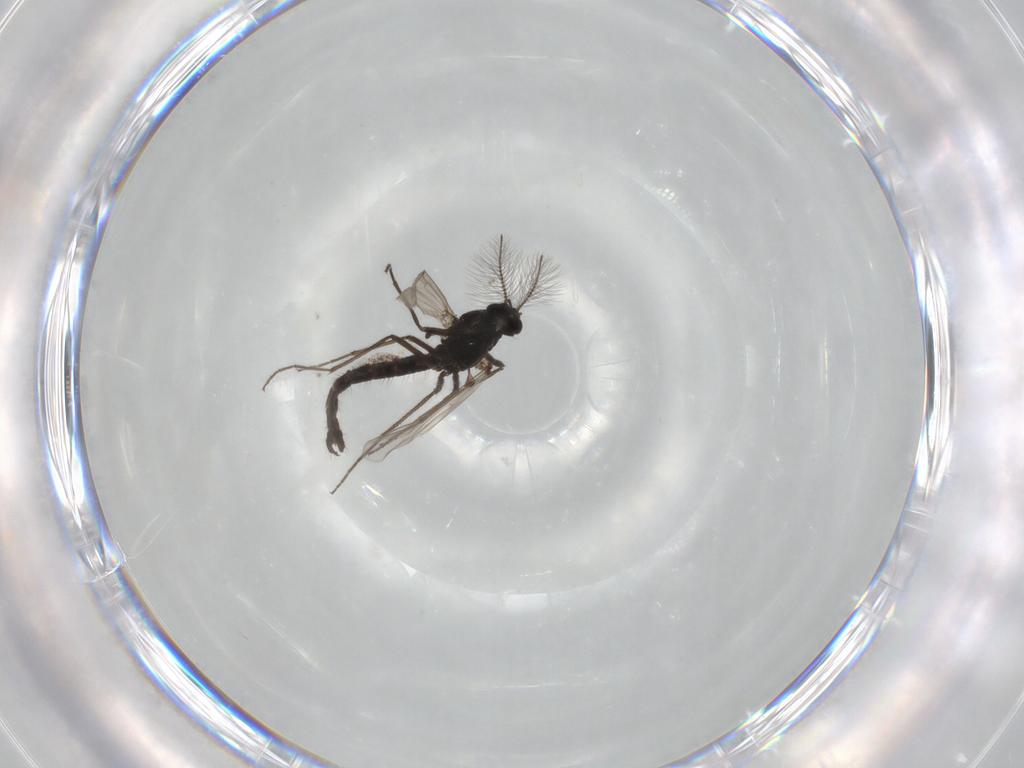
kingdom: Animalia
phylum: Arthropoda
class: Insecta
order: Diptera
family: Chironomidae
